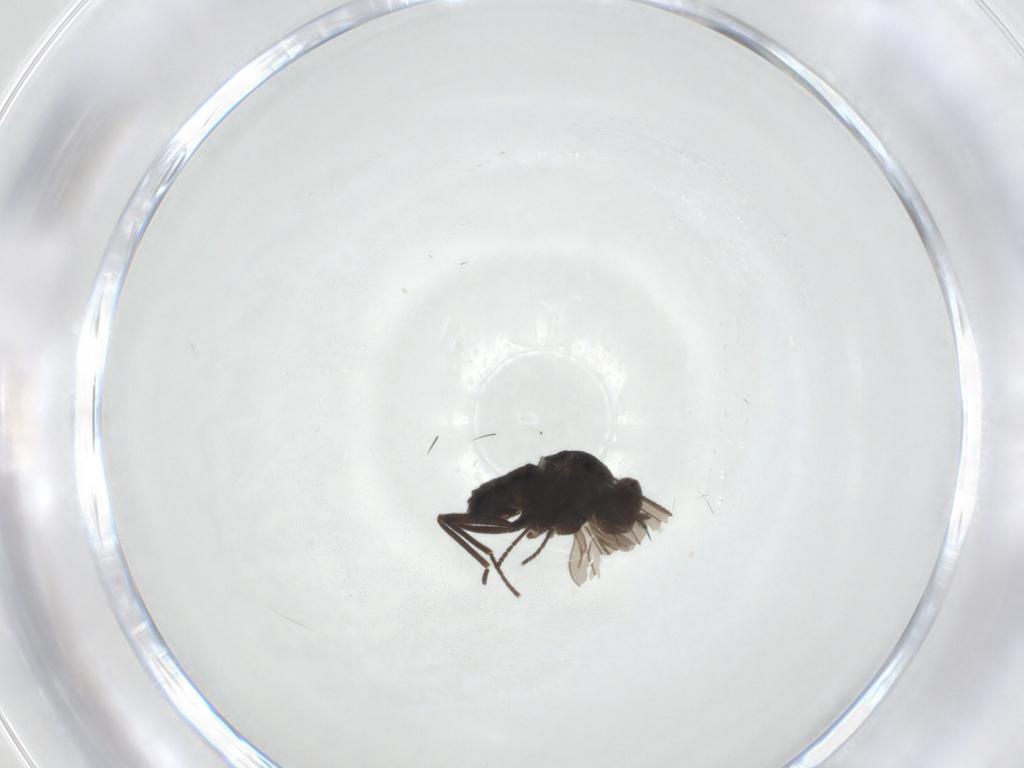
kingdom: Animalia
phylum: Arthropoda
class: Insecta
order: Diptera
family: Dolichopodidae
